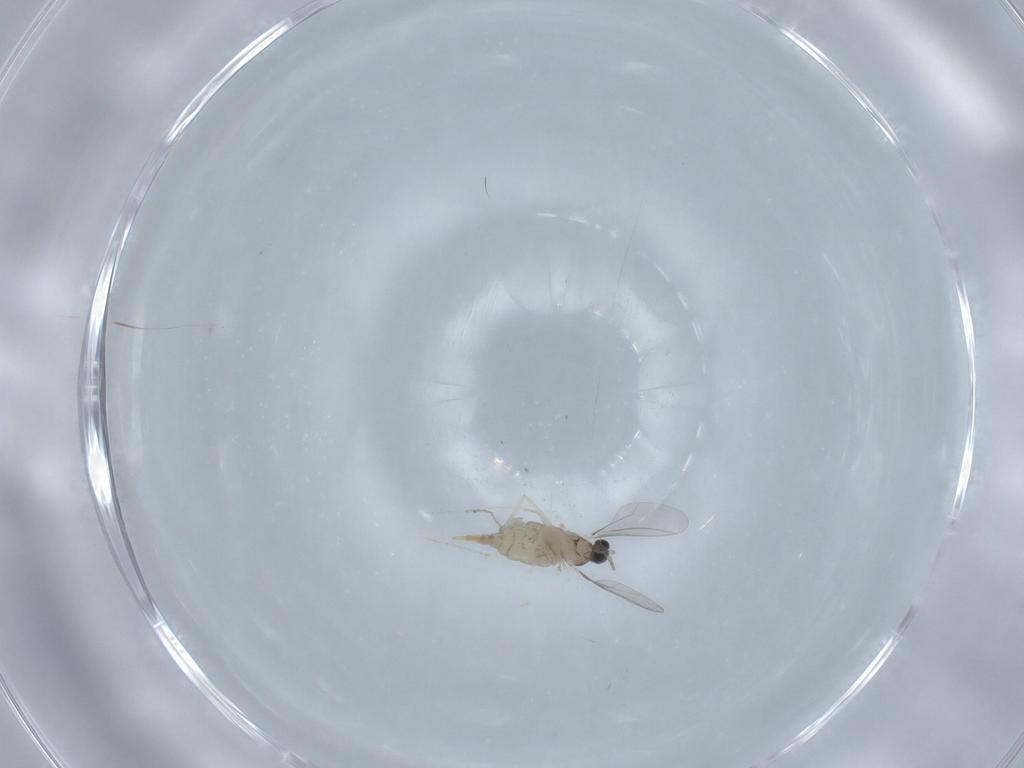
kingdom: Animalia
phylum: Arthropoda
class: Insecta
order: Diptera
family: Cecidomyiidae
